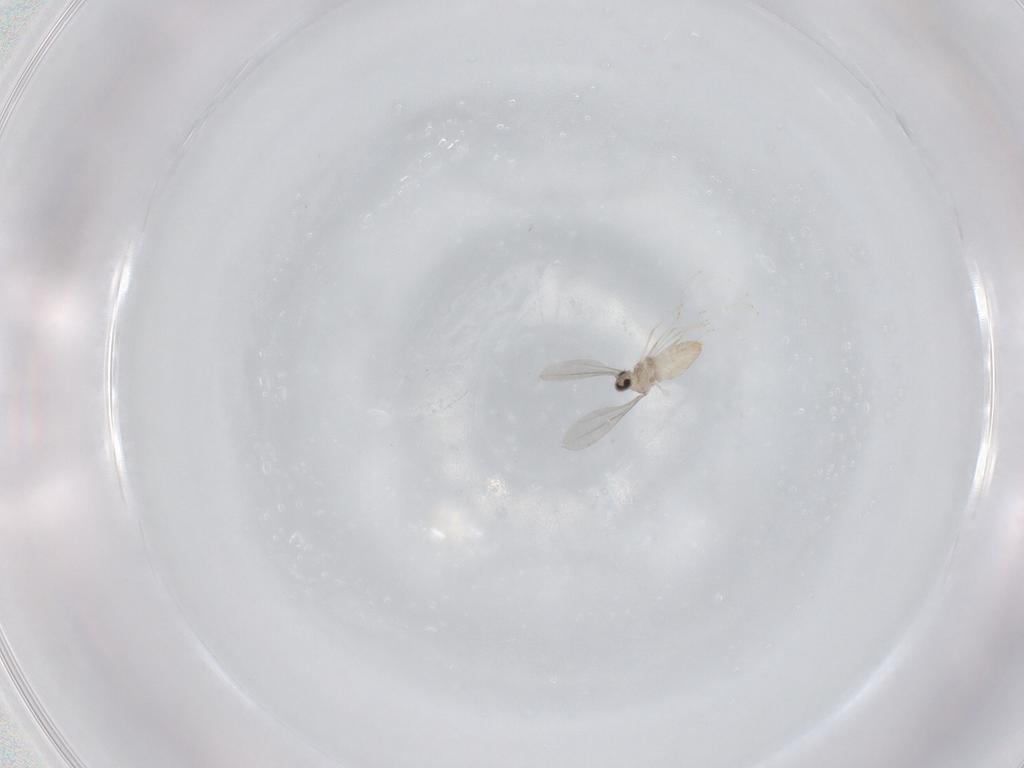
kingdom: Animalia
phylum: Arthropoda
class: Insecta
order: Diptera
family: Cecidomyiidae
